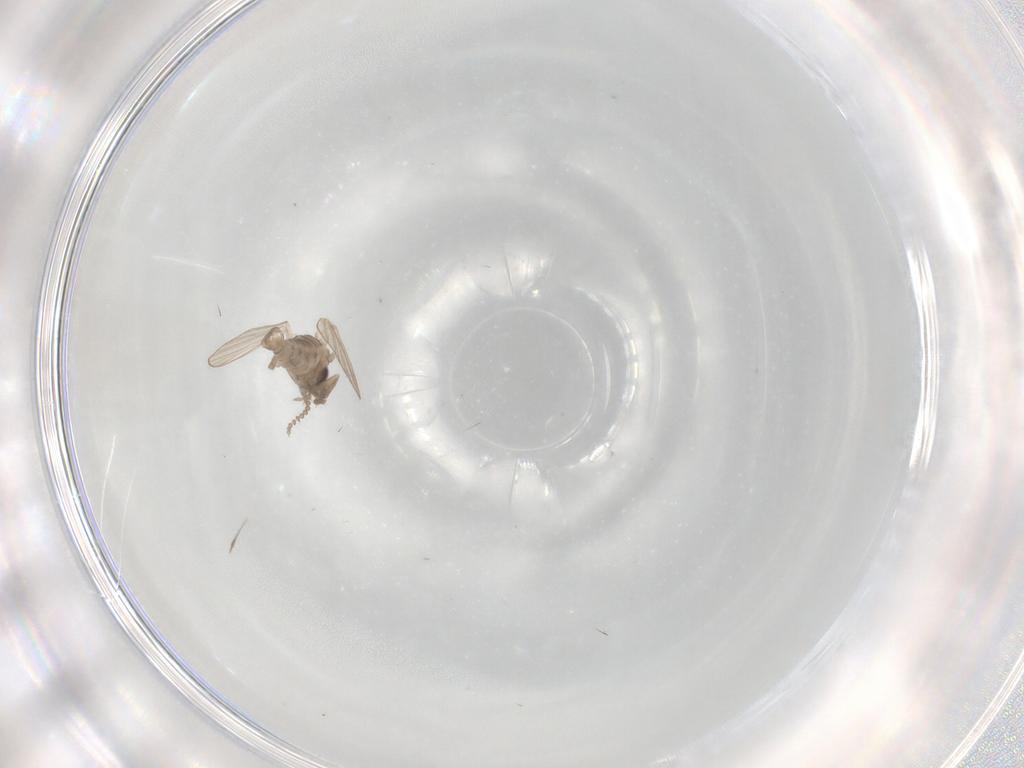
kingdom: Animalia
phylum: Arthropoda
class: Insecta
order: Diptera
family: Psychodidae
